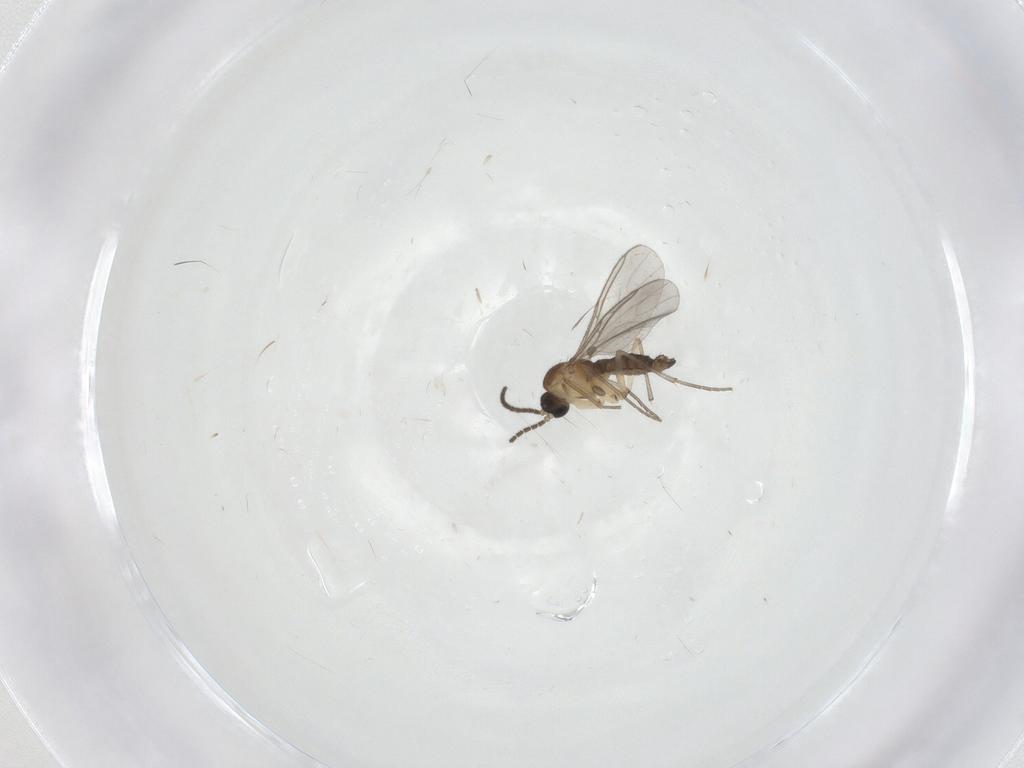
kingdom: Animalia
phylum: Arthropoda
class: Insecta
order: Diptera
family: Sciaridae
